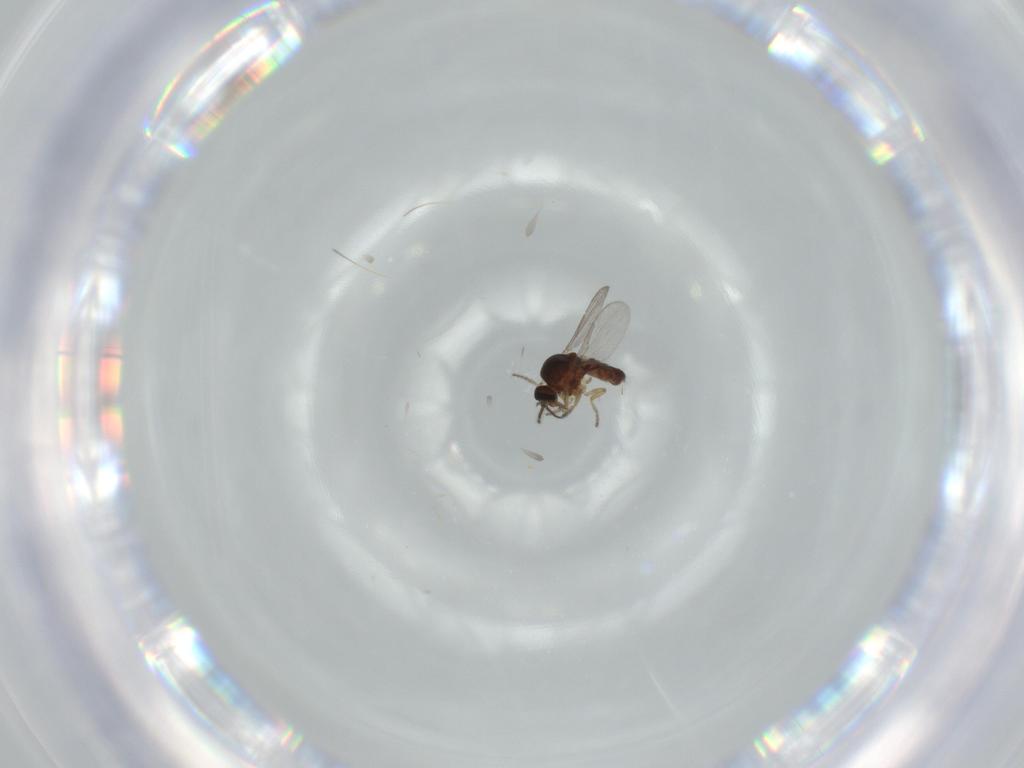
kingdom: Animalia
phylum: Arthropoda
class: Insecta
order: Diptera
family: Ceratopogonidae
